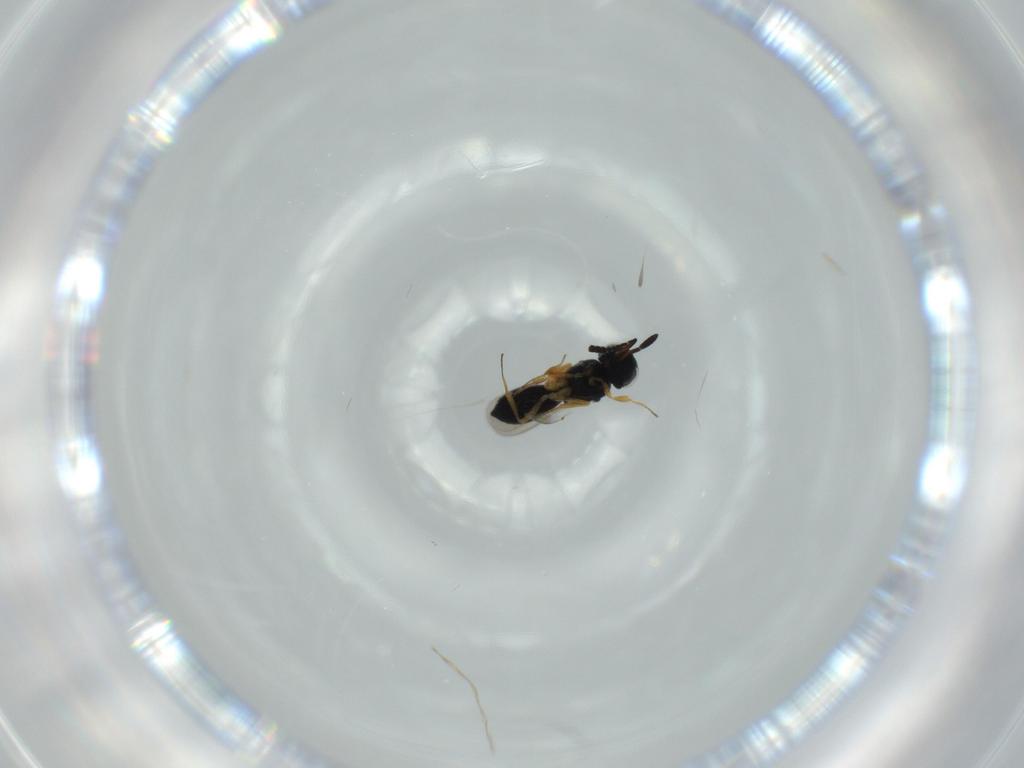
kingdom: Animalia
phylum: Arthropoda
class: Insecta
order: Hymenoptera
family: Scelionidae
